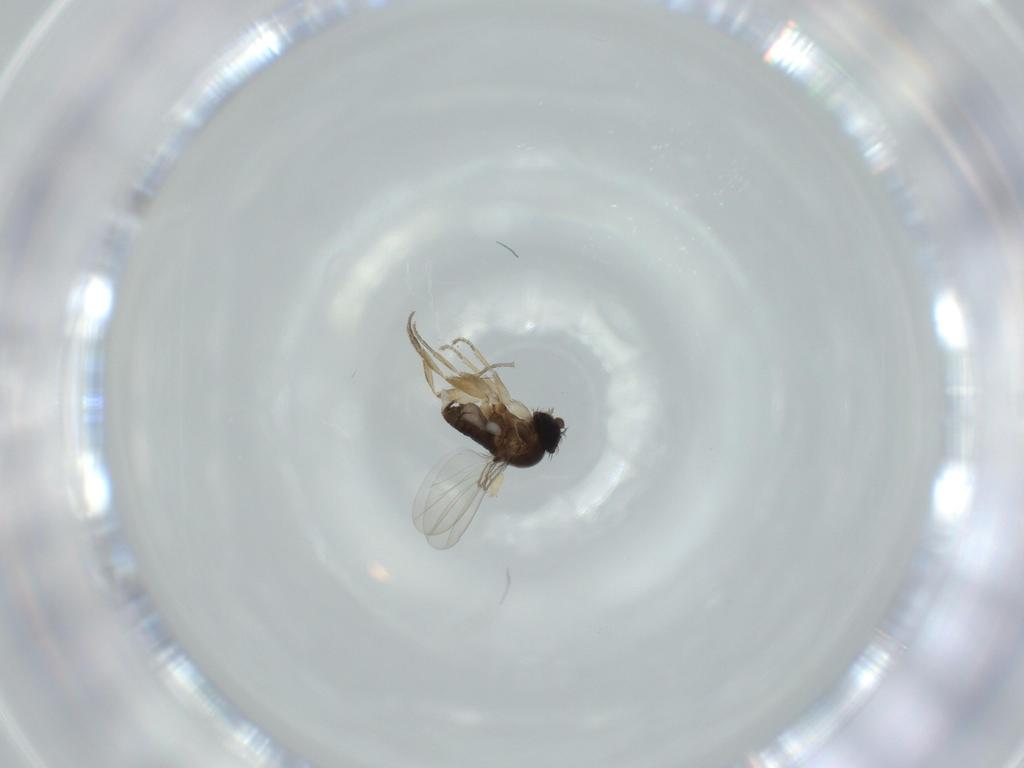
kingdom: Animalia
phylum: Arthropoda
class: Insecta
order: Diptera
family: Phoridae
